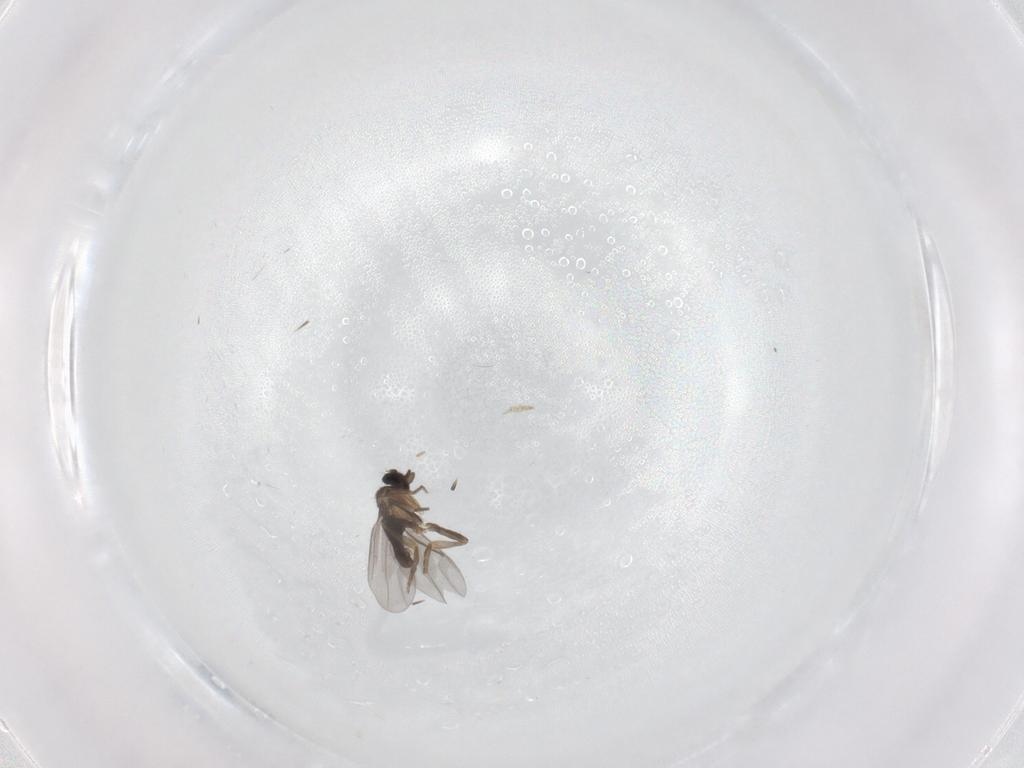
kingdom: Animalia
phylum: Arthropoda
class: Insecta
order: Diptera
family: Sciaridae
